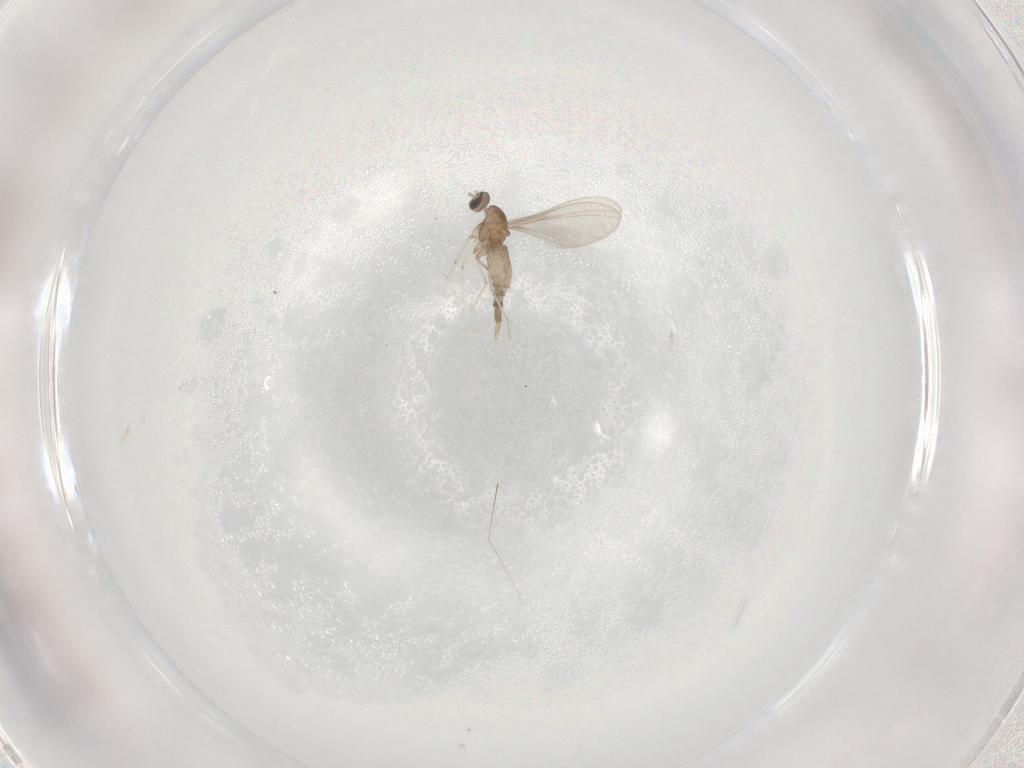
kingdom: Animalia
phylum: Arthropoda
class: Insecta
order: Diptera
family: Cecidomyiidae
